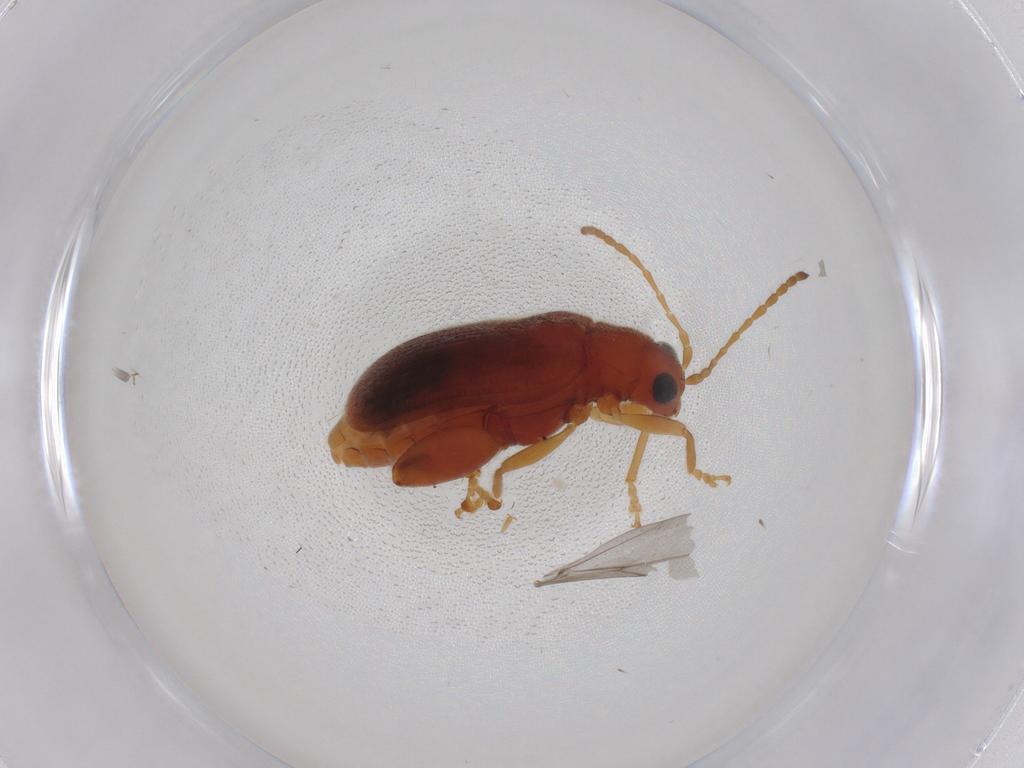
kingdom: Animalia
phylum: Arthropoda
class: Insecta
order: Coleoptera
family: Chrysomelidae
